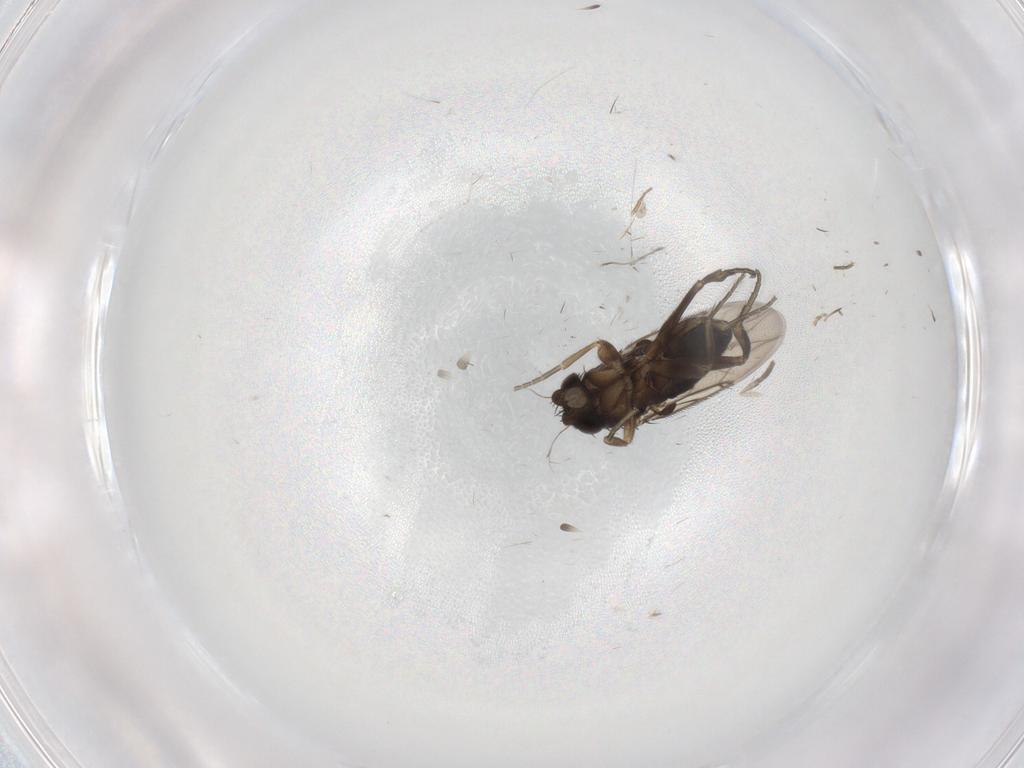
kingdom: Animalia
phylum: Arthropoda
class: Insecta
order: Diptera
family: Phoridae
